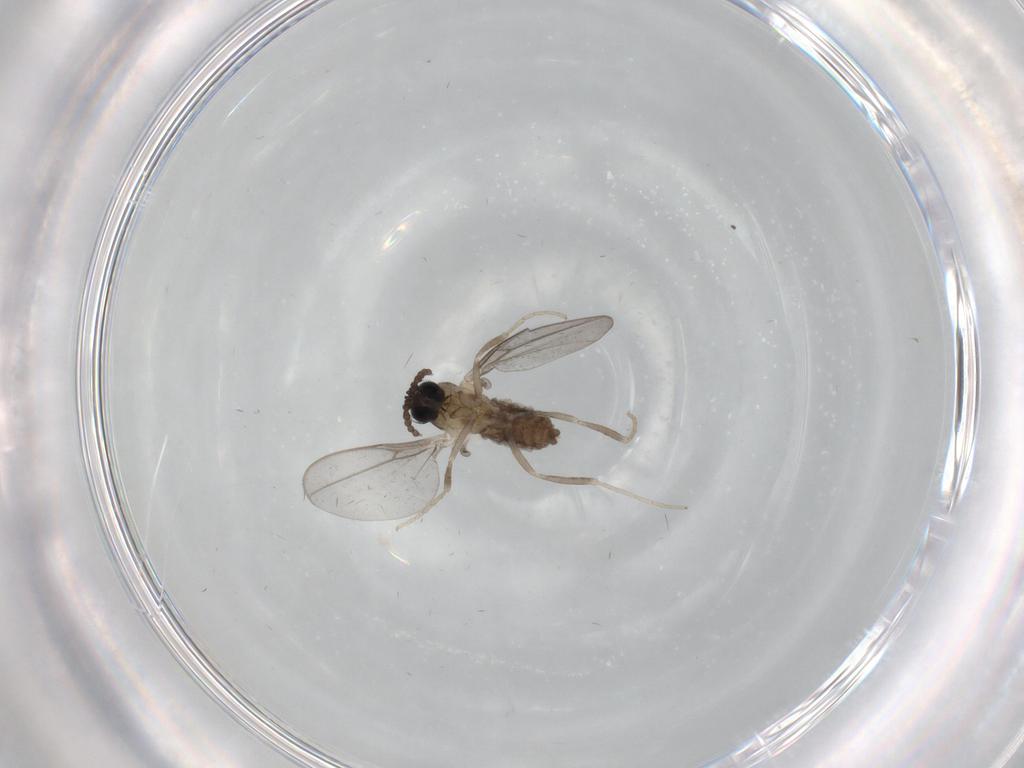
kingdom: Animalia
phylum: Arthropoda
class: Insecta
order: Diptera
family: Cecidomyiidae
